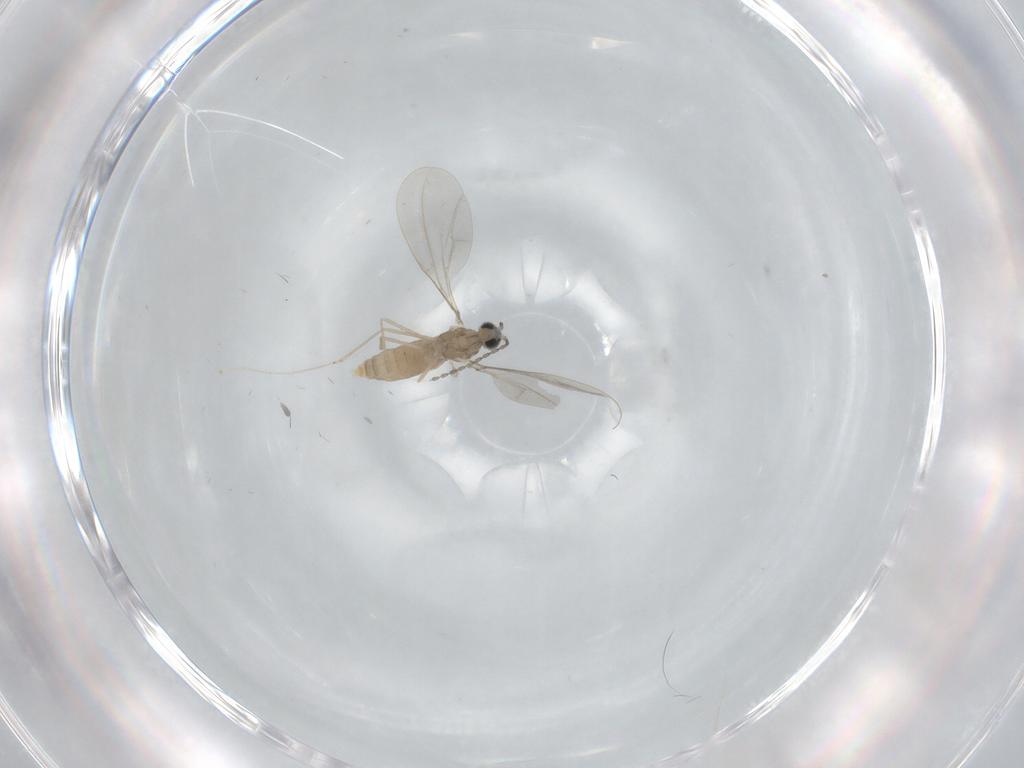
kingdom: Animalia
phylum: Arthropoda
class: Insecta
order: Diptera
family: Cecidomyiidae
